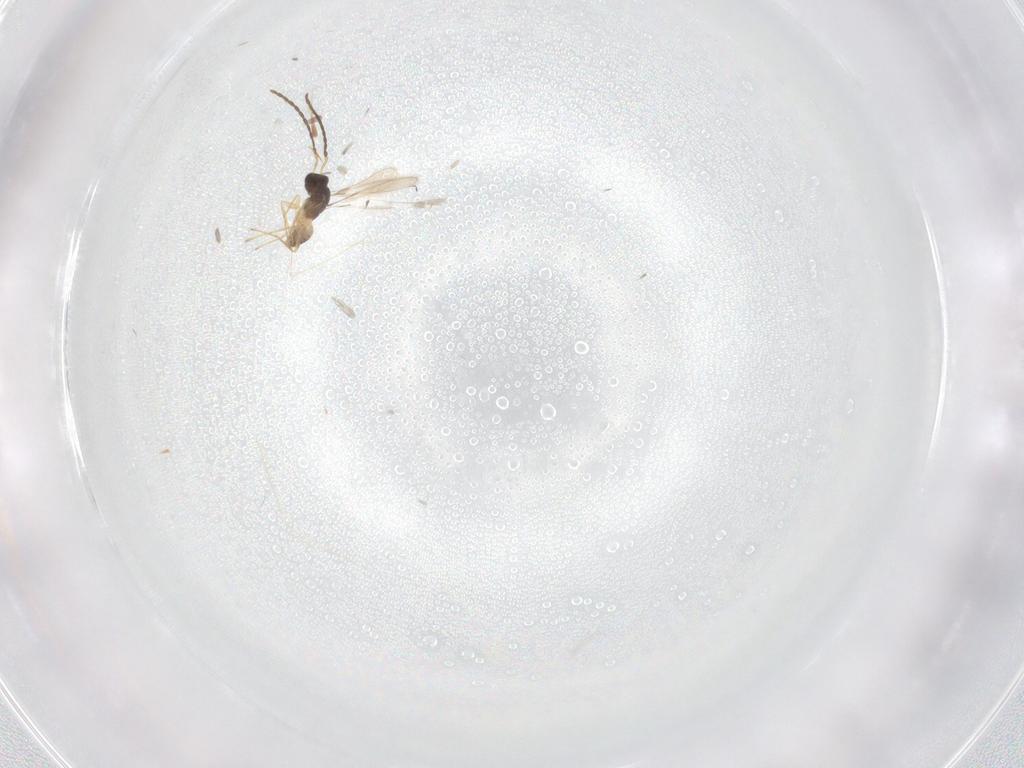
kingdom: Animalia
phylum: Arthropoda
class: Insecta
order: Hymenoptera
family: Mymaridae
